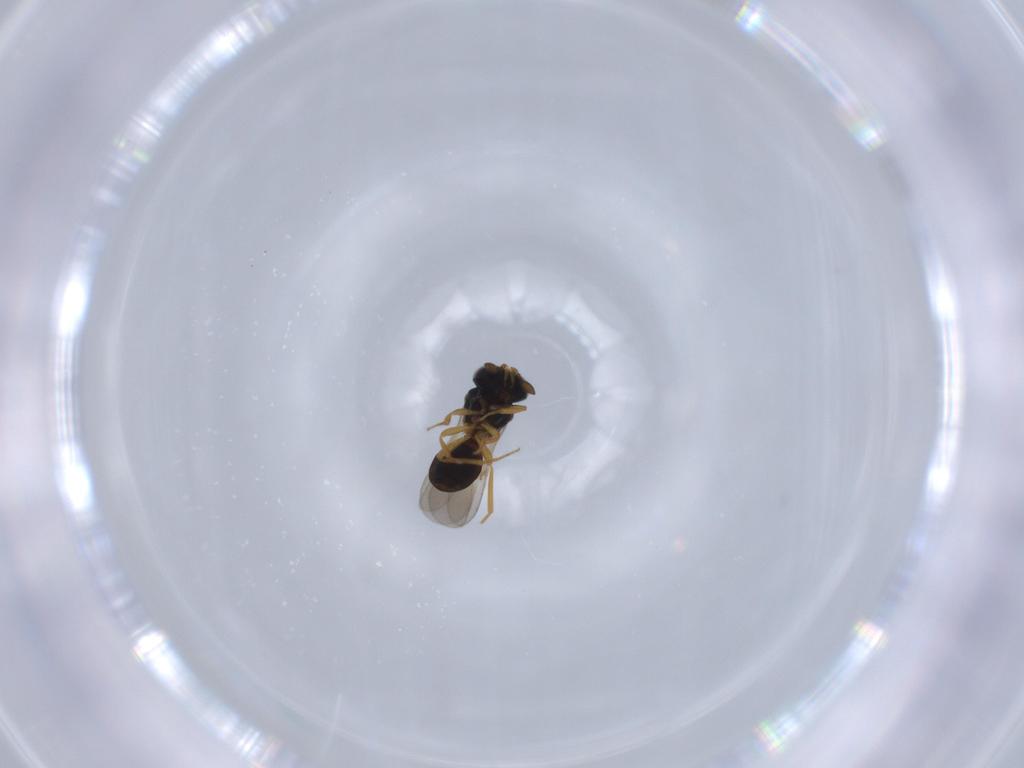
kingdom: Animalia
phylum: Arthropoda
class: Insecta
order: Hymenoptera
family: Scelionidae
